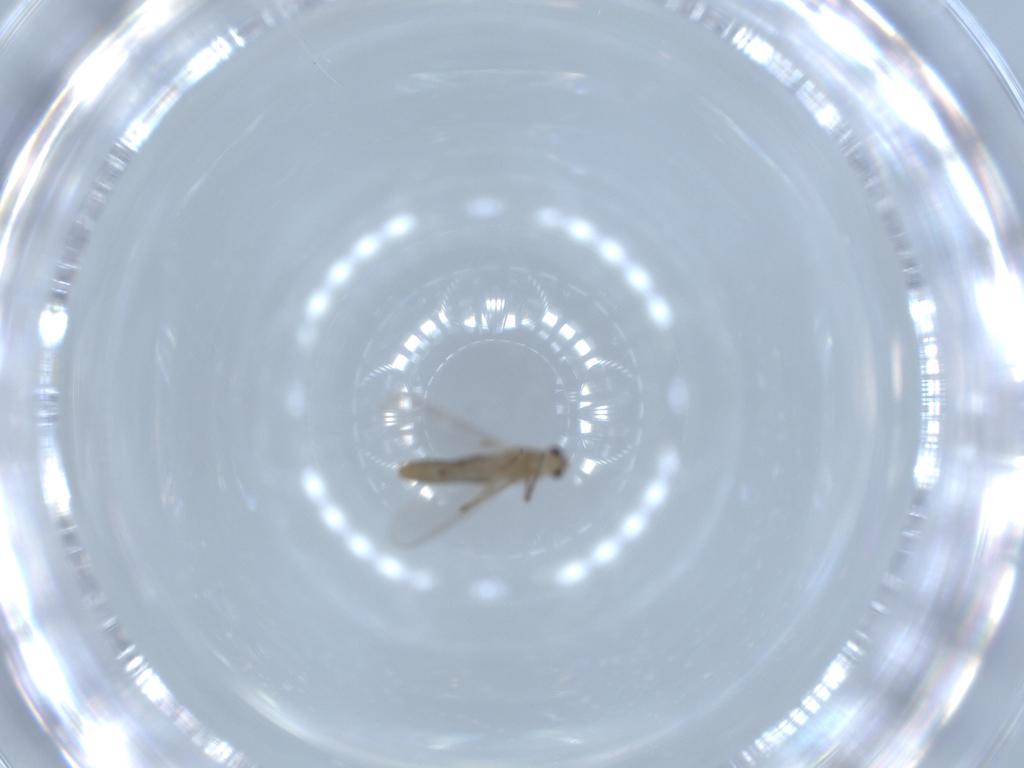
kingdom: Animalia
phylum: Arthropoda
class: Insecta
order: Diptera
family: Chironomidae
